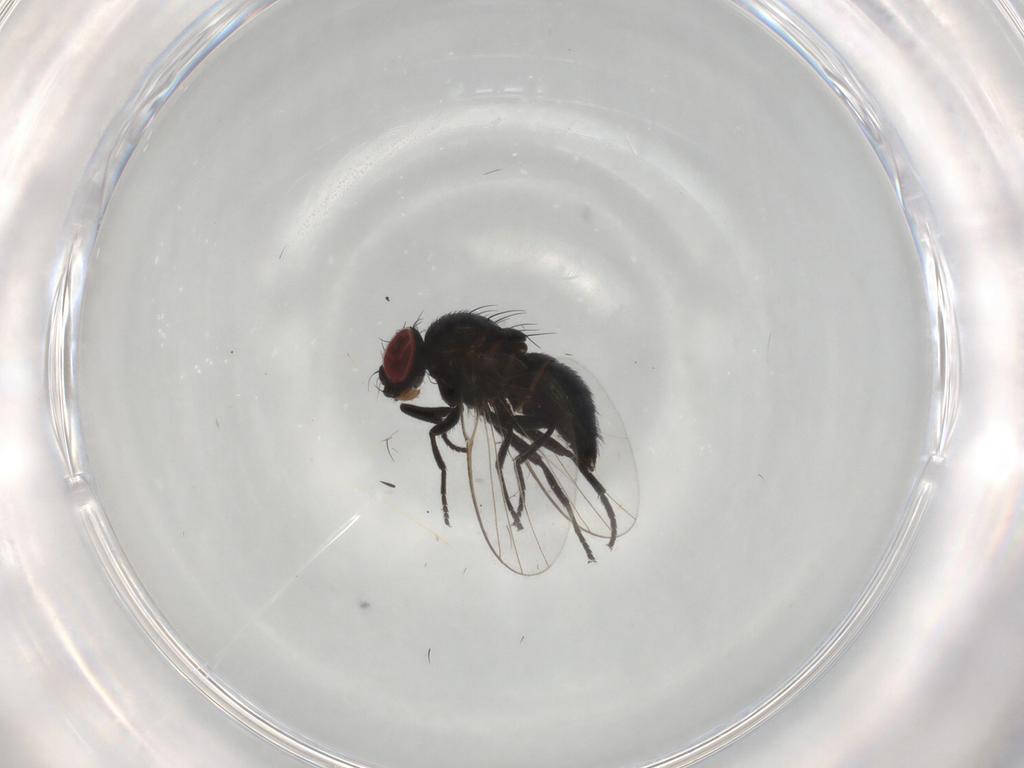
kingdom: Animalia
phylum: Arthropoda
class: Insecta
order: Diptera
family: Agromyzidae
